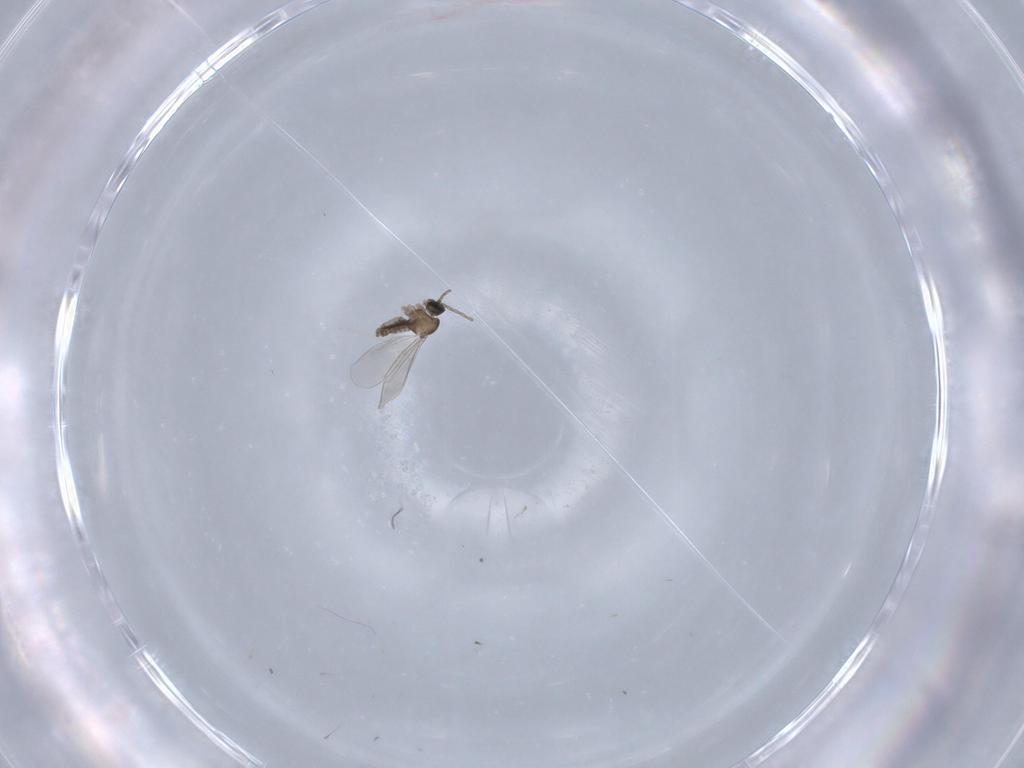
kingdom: Animalia
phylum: Arthropoda
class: Insecta
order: Diptera
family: Cecidomyiidae
